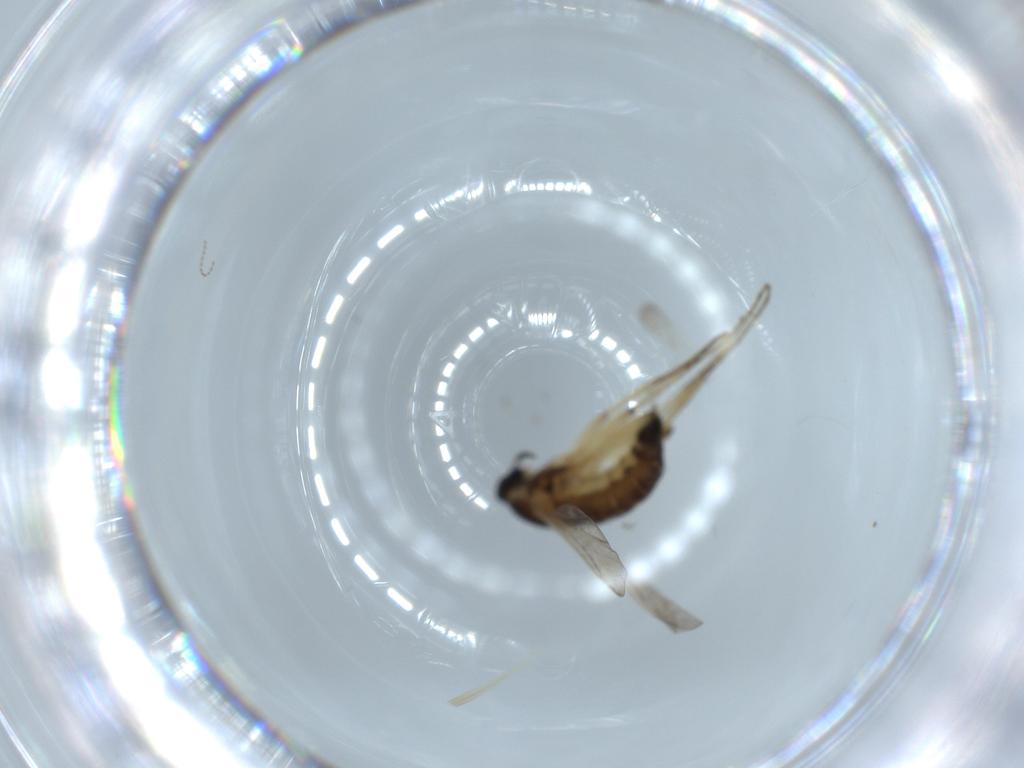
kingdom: Animalia
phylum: Arthropoda
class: Insecta
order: Diptera
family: Cecidomyiidae
